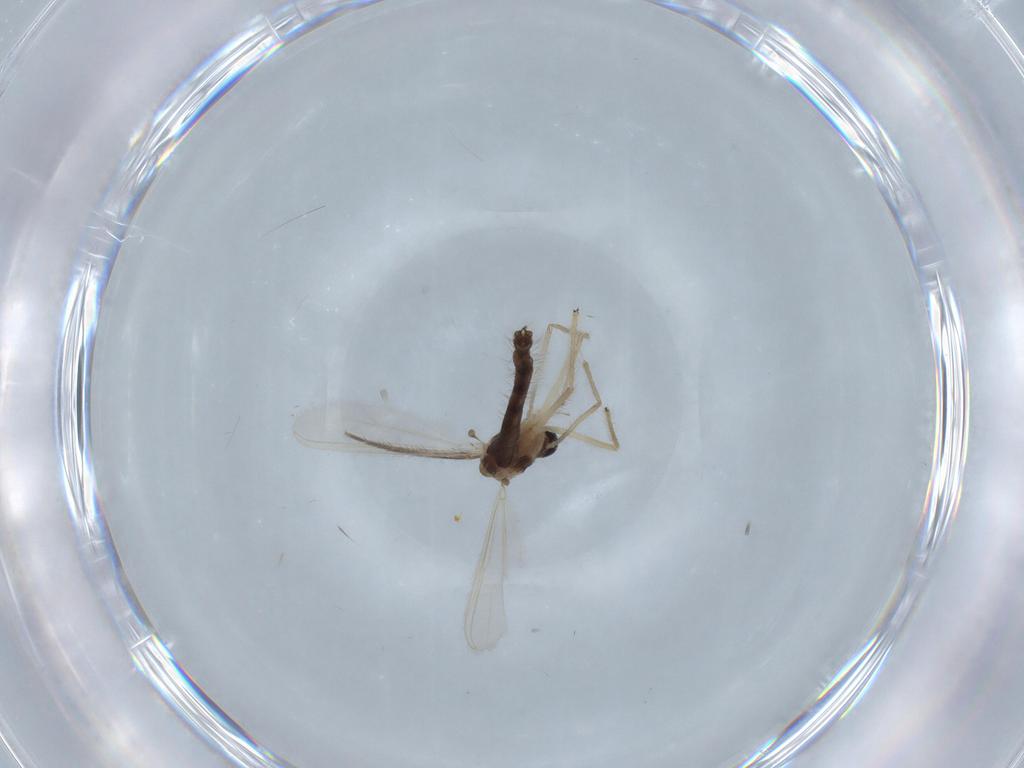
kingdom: Animalia
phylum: Arthropoda
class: Insecta
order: Diptera
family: Chironomidae
